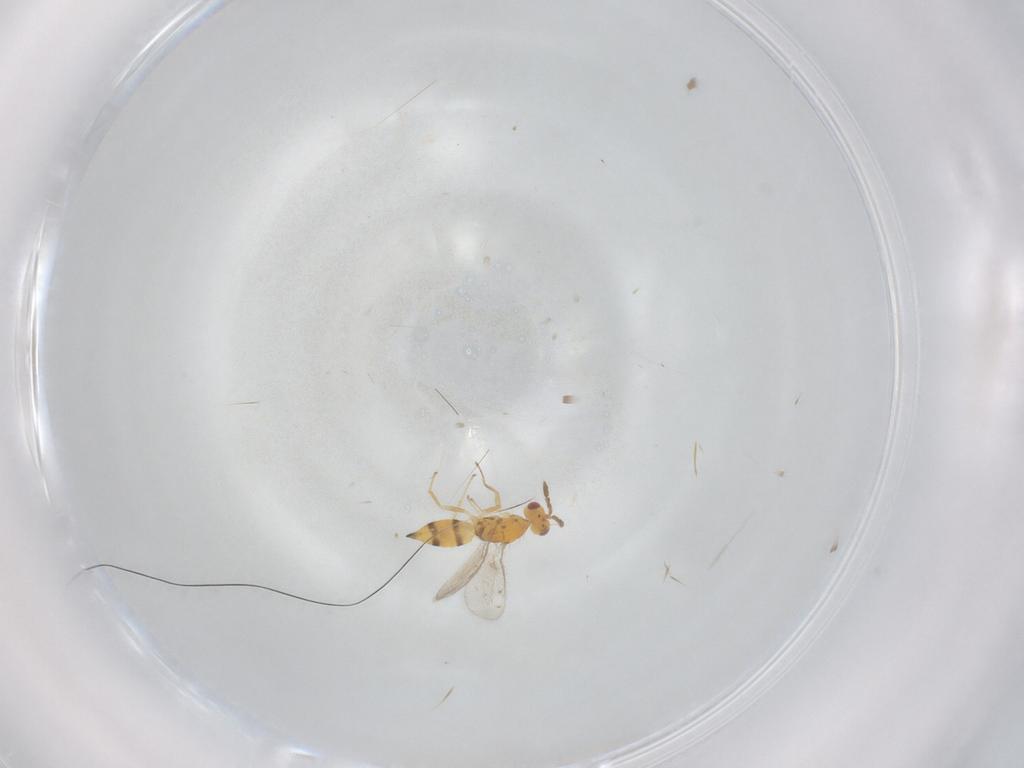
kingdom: Animalia
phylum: Arthropoda
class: Insecta
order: Hymenoptera
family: Eulophidae
